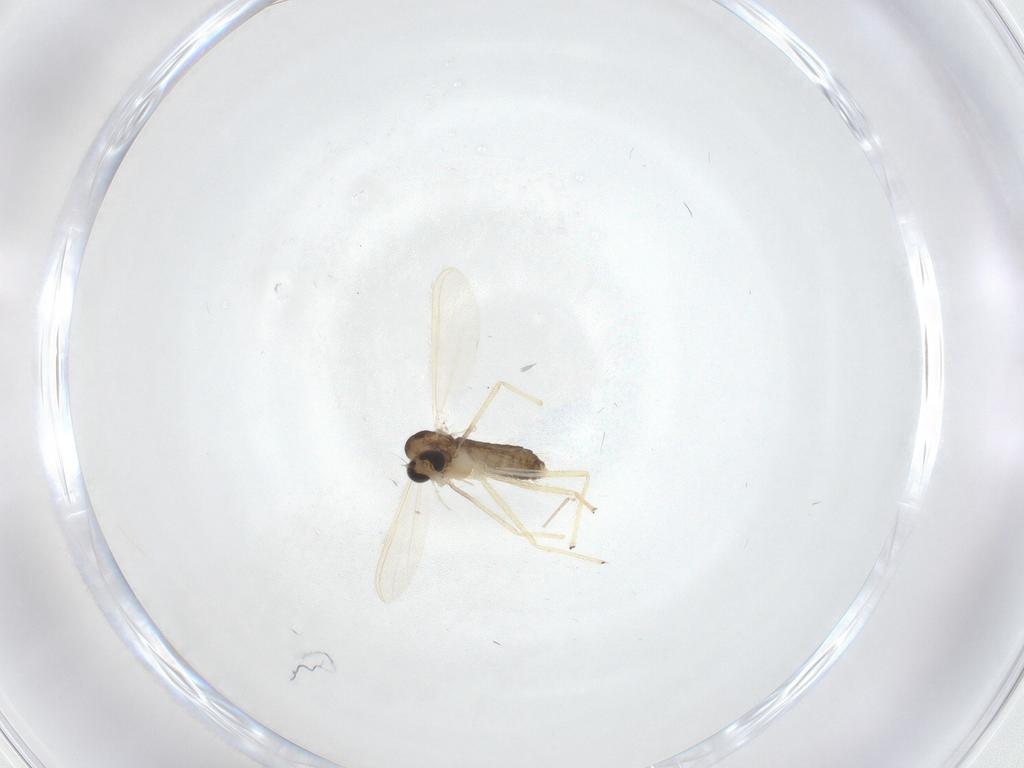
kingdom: Animalia
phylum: Arthropoda
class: Insecta
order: Diptera
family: Chironomidae
